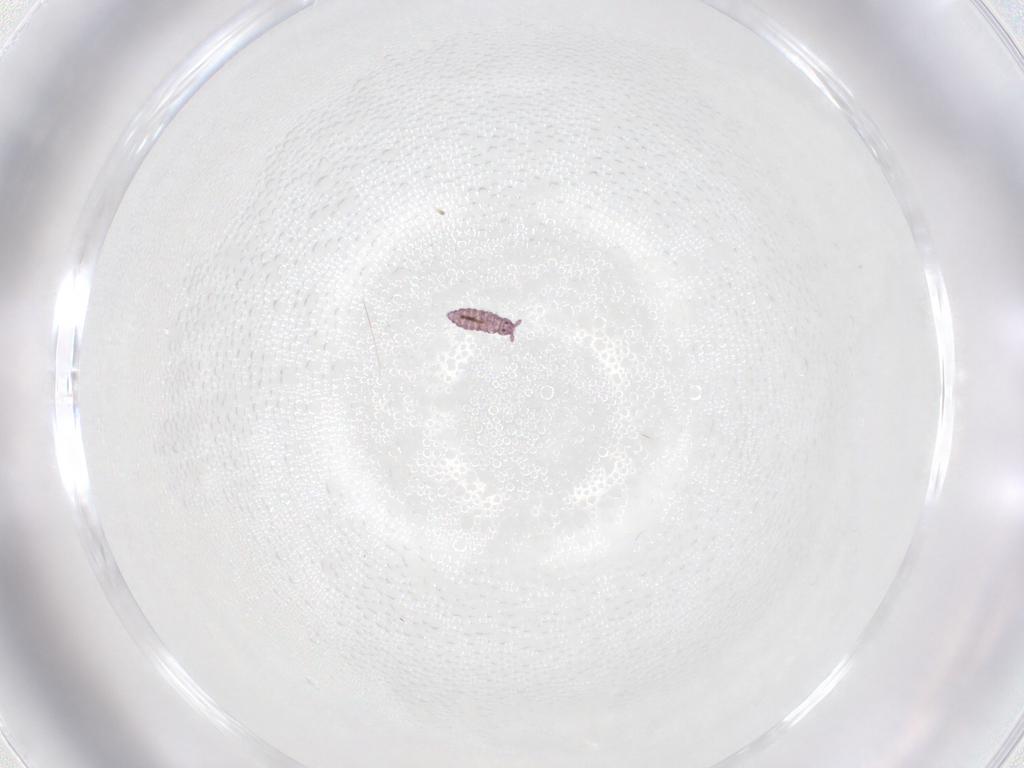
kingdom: Animalia
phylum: Arthropoda
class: Collembola
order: Poduromorpha
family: Hypogastruridae
